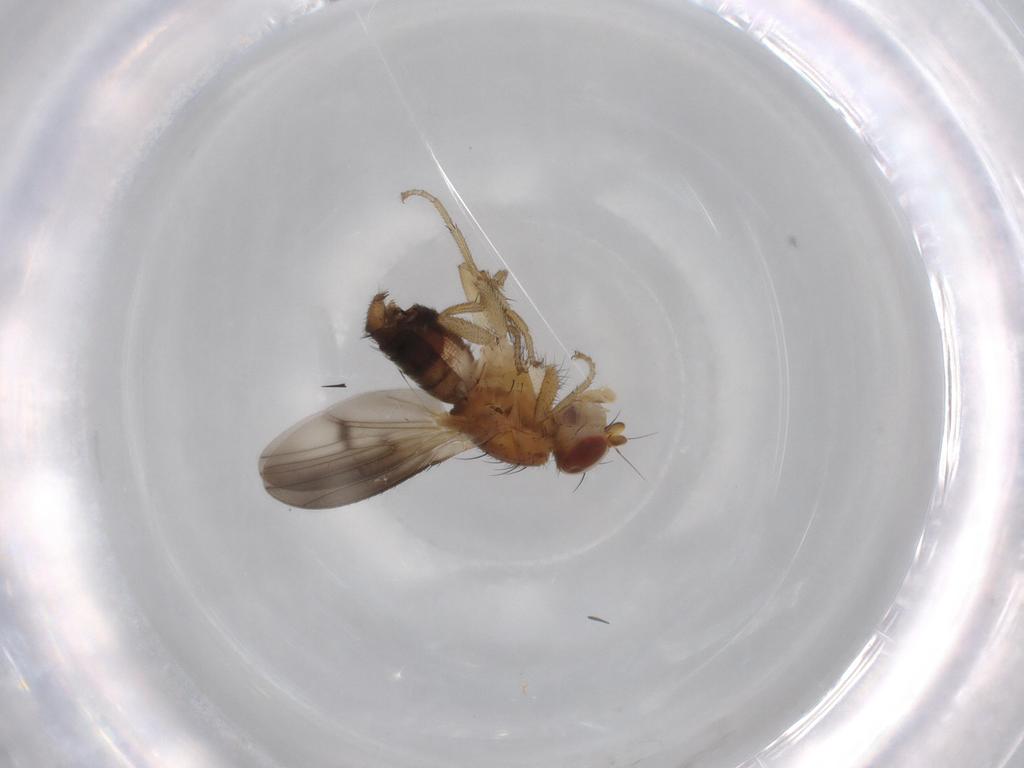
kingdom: Animalia
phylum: Arthropoda
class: Insecta
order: Diptera
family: Heleomyzidae
